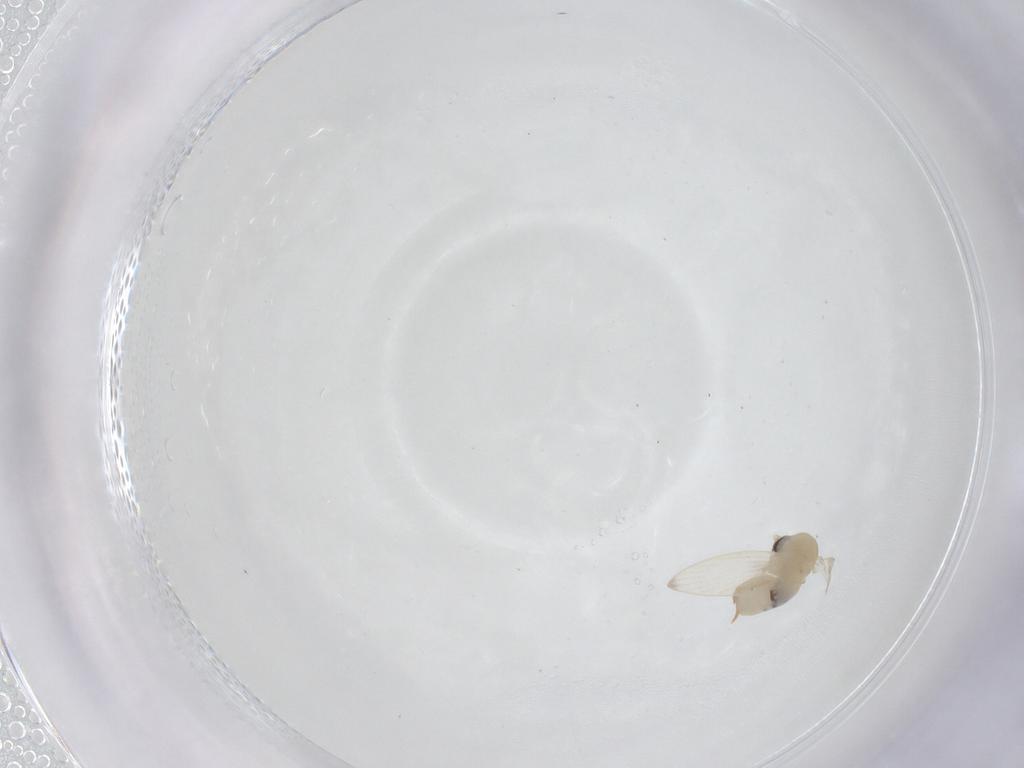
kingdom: Animalia
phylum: Arthropoda
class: Insecta
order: Diptera
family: Psychodidae
